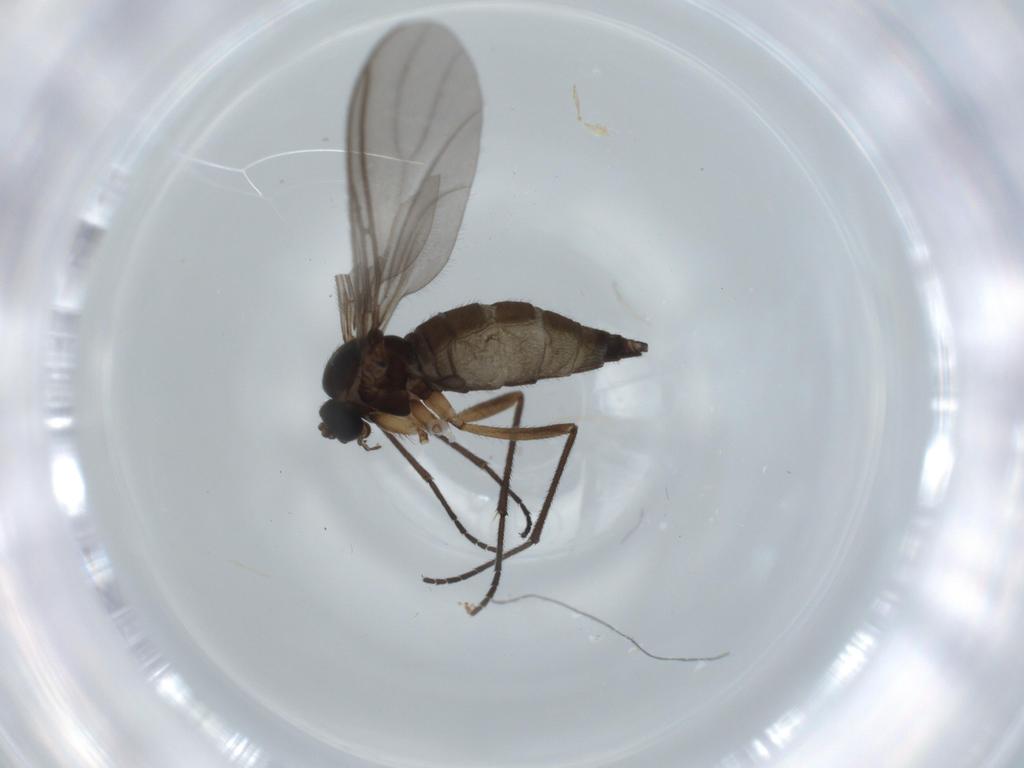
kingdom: Animalia
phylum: Arthropoda
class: Insecta
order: Diptera
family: Sciaridae
